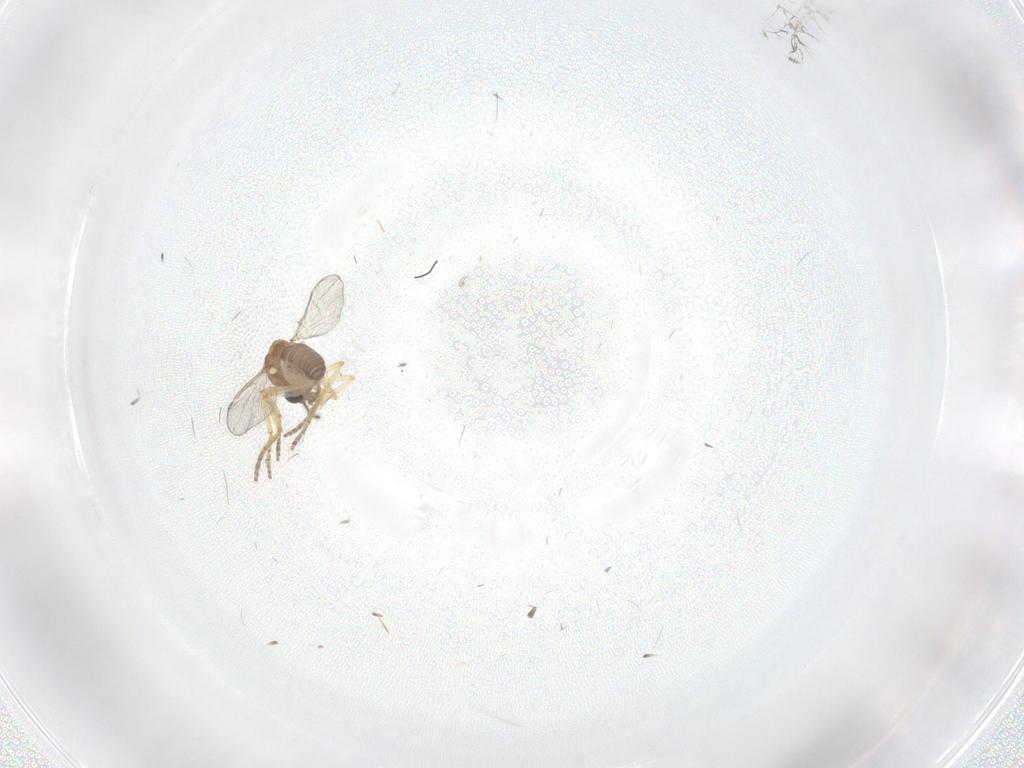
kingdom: Animalia
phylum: Arthropoda
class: Insecta
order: Diptera
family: Ceratopogonidae
